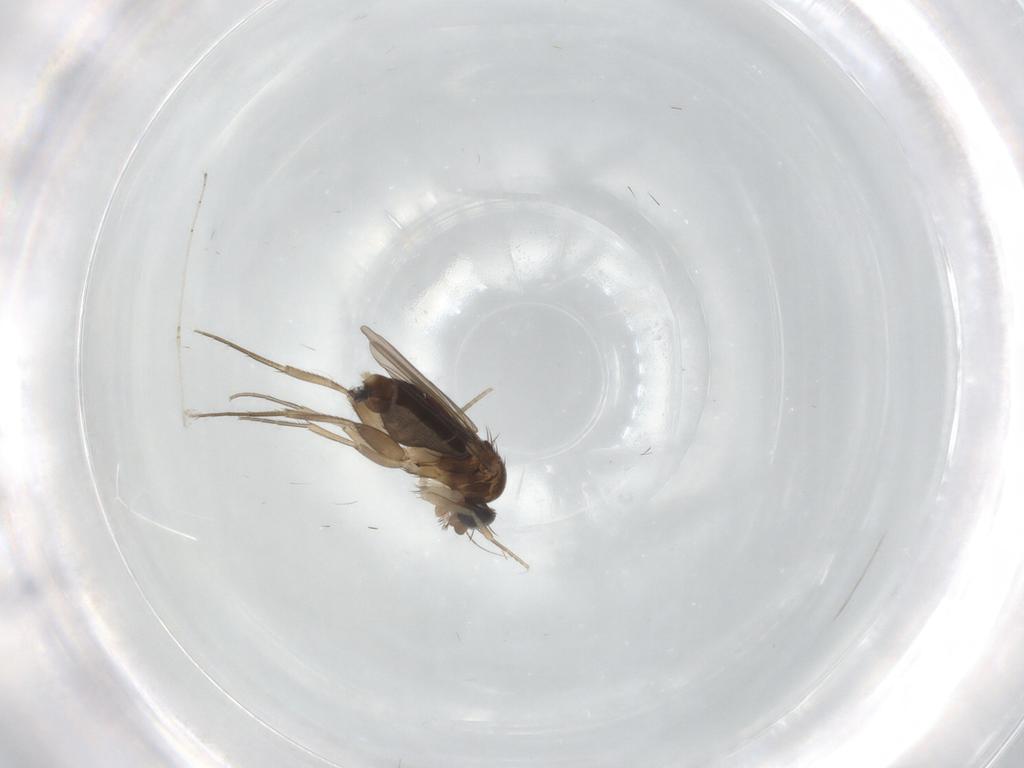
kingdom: Animalia
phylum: Arthropoda
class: Insecta
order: Diptera
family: Phoridae
